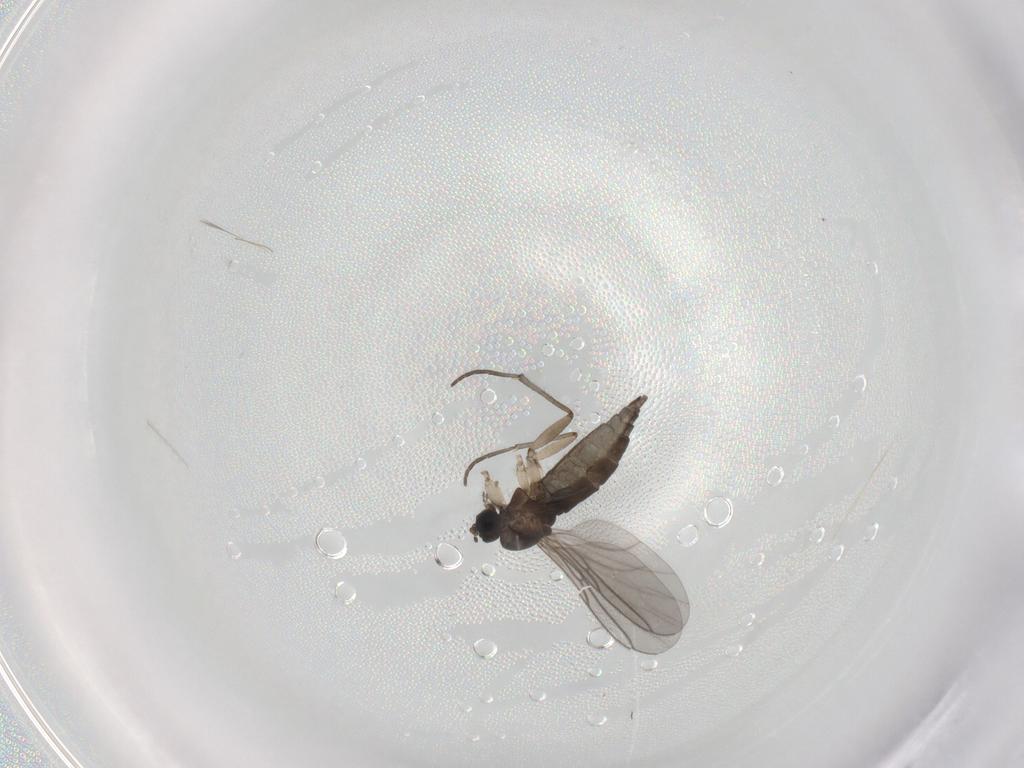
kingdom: Animalia
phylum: Arthropoda
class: Insecta
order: Diptera
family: Sciaridae
